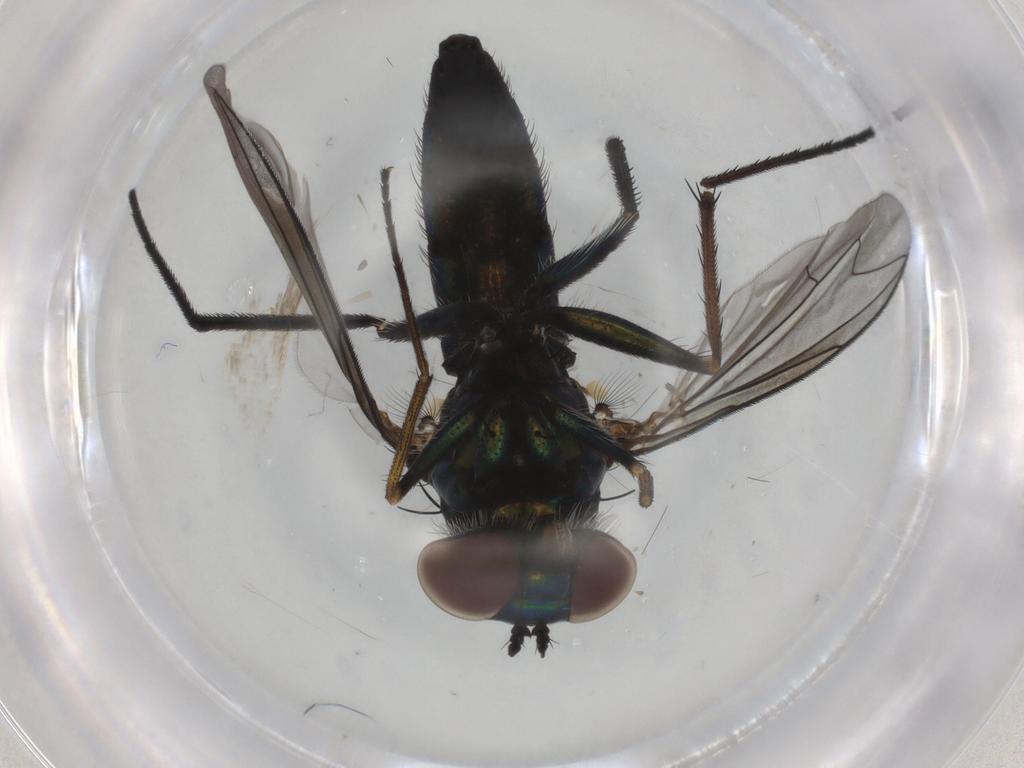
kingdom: Animalia
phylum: Arthropoda
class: Insecta
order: Diptera
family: Dolichopodidae
